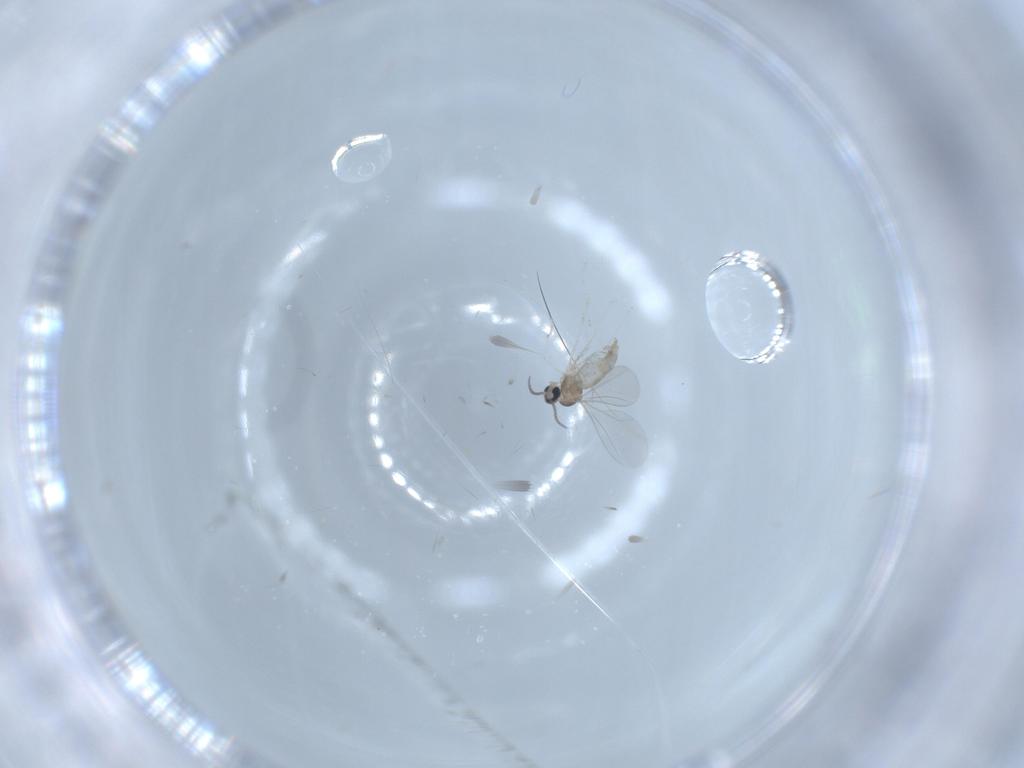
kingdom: Animalia
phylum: Arthropoda
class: Insecta
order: Diptera
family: Cecidomyiidae
